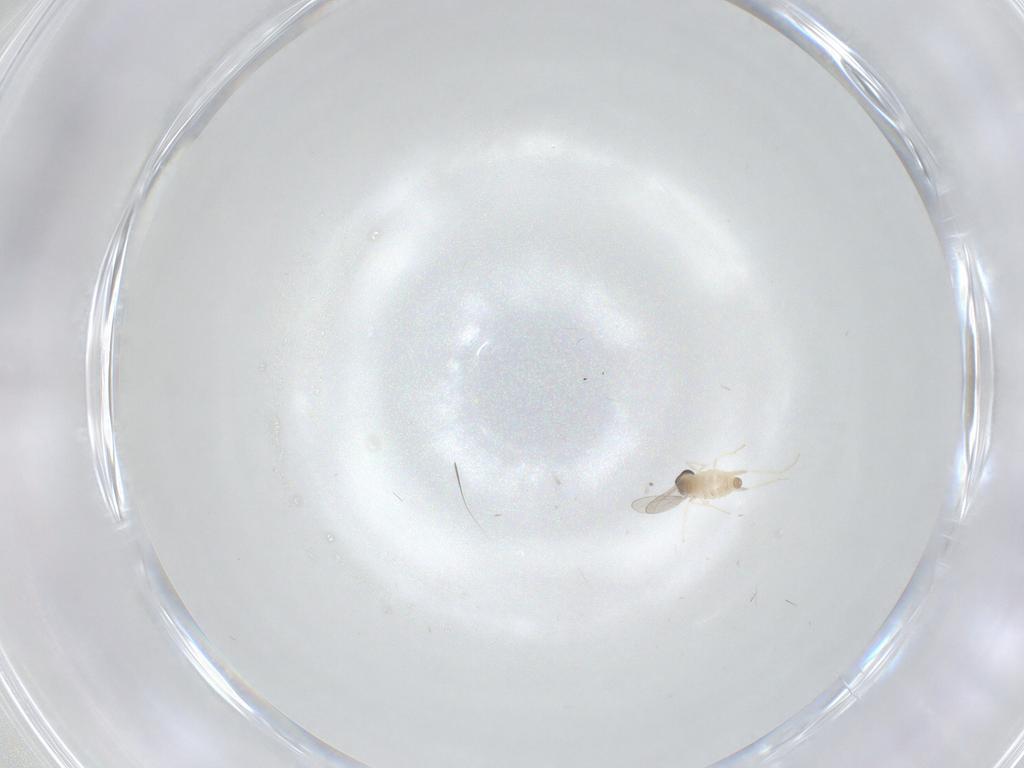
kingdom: Animalia
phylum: Arthropoda
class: Insecta
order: Diptera
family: Cecidomyiidae
